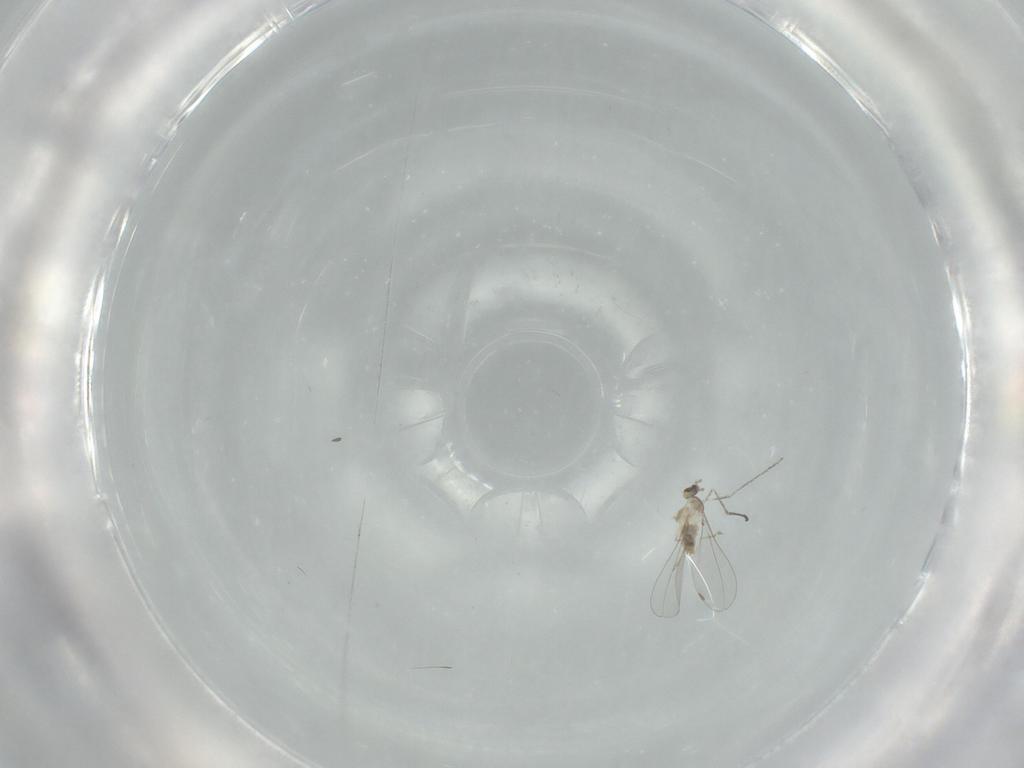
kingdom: Animalia
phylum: Arthropoda
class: Insecta
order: Diptera
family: Cecidomyiidae
